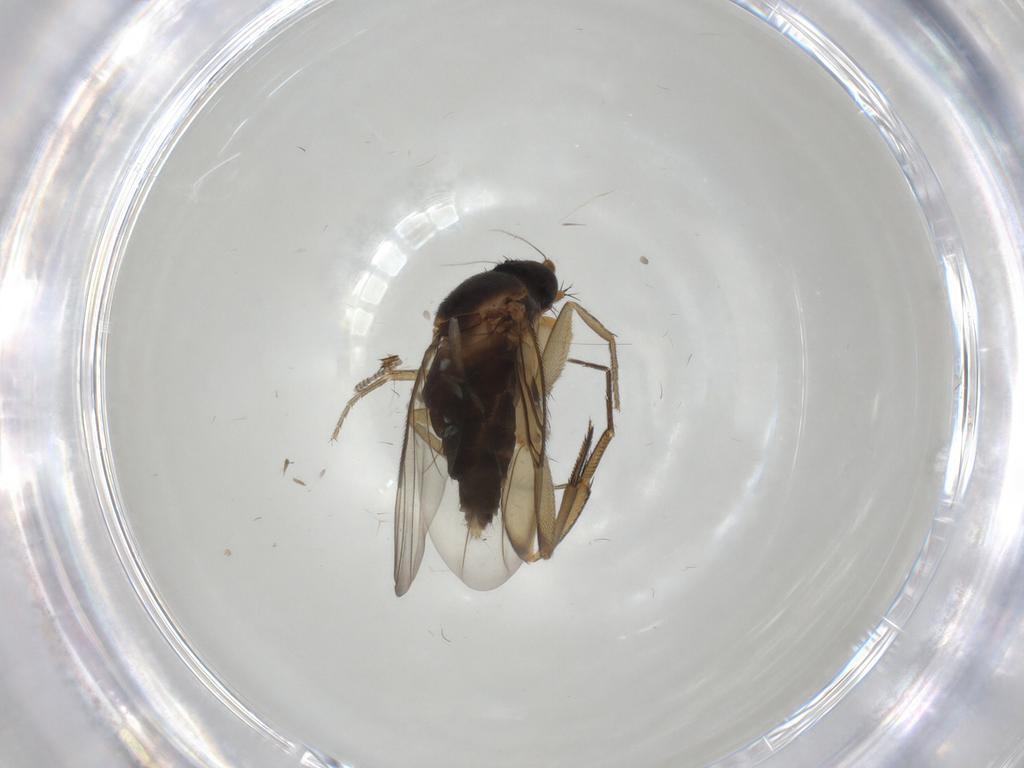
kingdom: Animalia
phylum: Arthropoda
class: Insecta
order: Diptera
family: Phoridae
